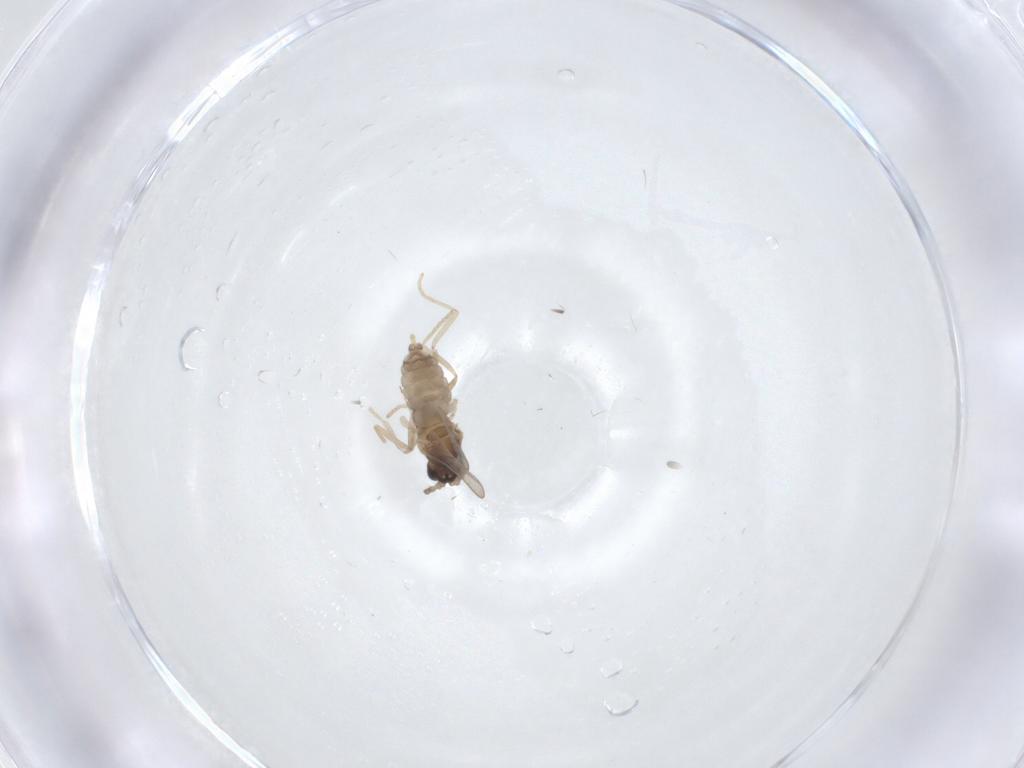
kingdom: Animalia
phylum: Arthropoda
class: Insecta
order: Diptera
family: Cecidomyiidae
